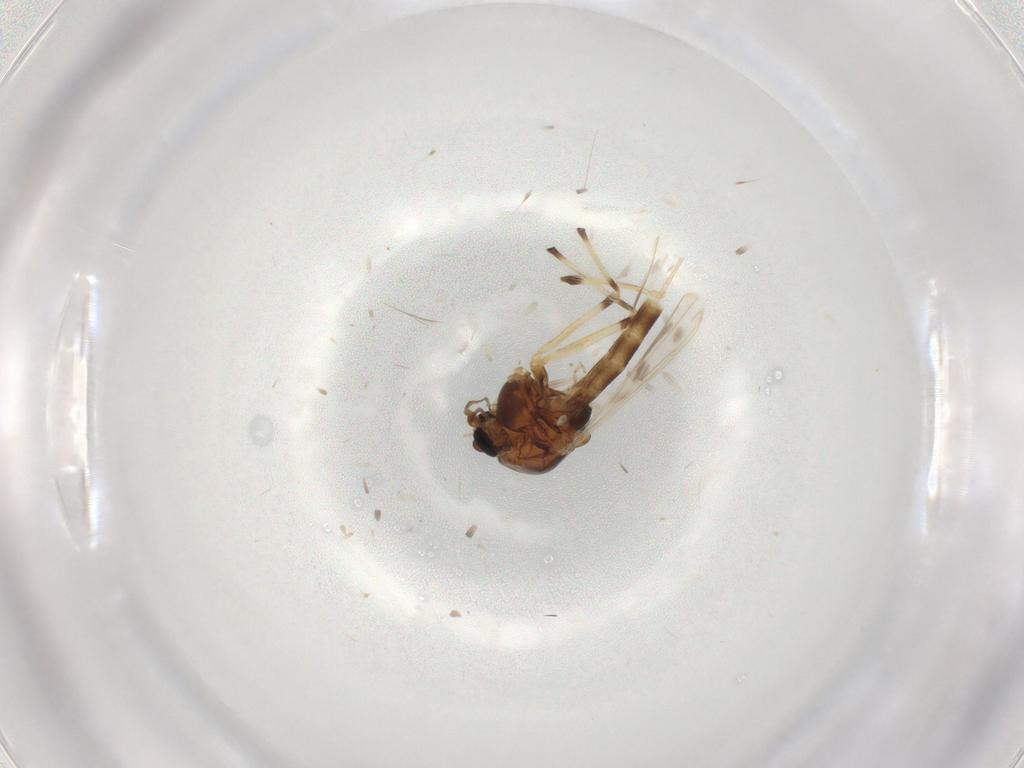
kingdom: Animalia
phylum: Arthropoda
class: Insecta
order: Diptera
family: Chironomidae
